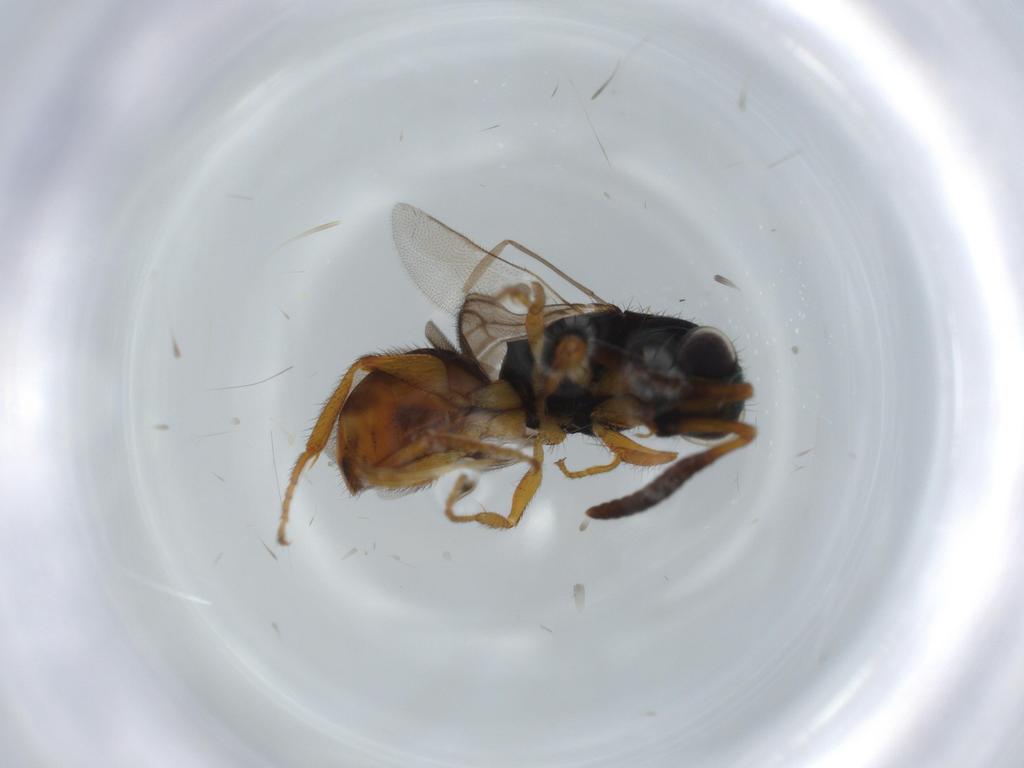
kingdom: Animalia
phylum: Arthropoda
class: Insecta
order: Hymenoptera
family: Chrysididae
